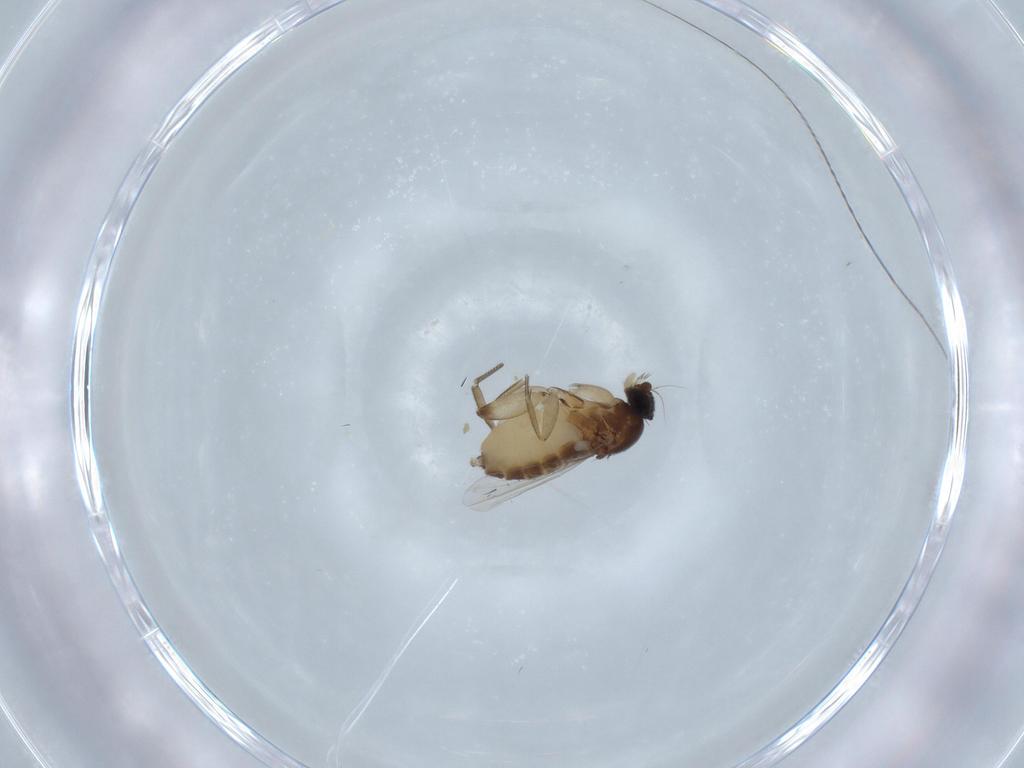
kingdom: Animalia
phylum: Arthropoda
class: Insecta
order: Diptera
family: Phoridae
